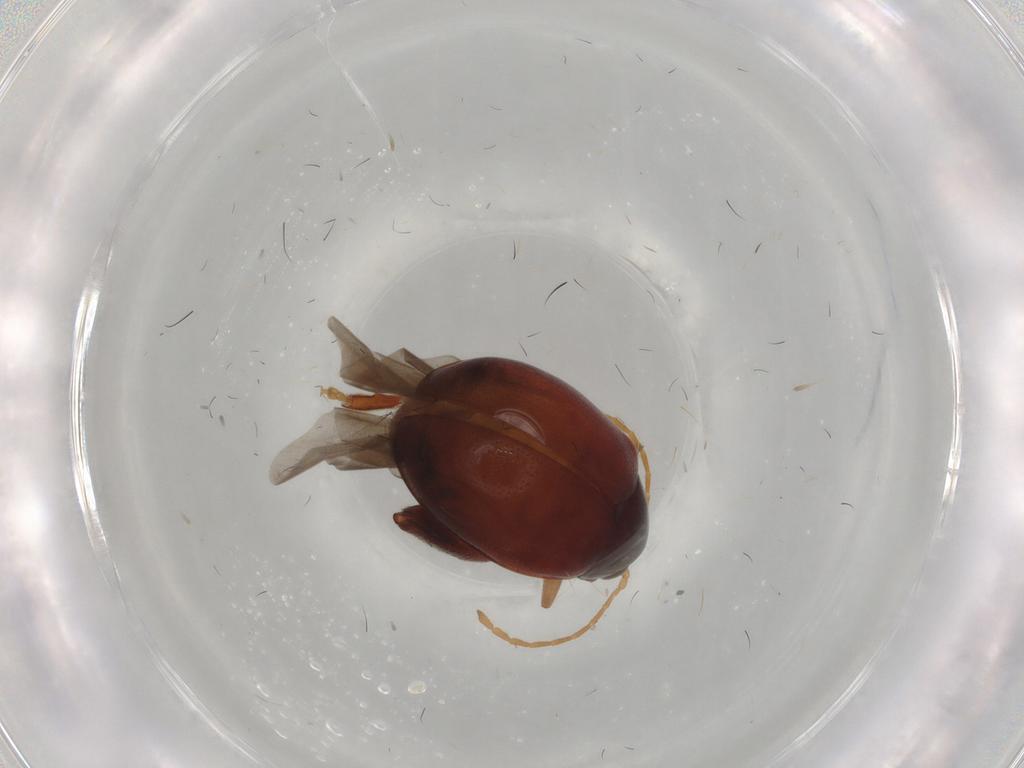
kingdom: Animalia
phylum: Arthropoda
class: Insecta
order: Coleoptera
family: Chrysomelidae
